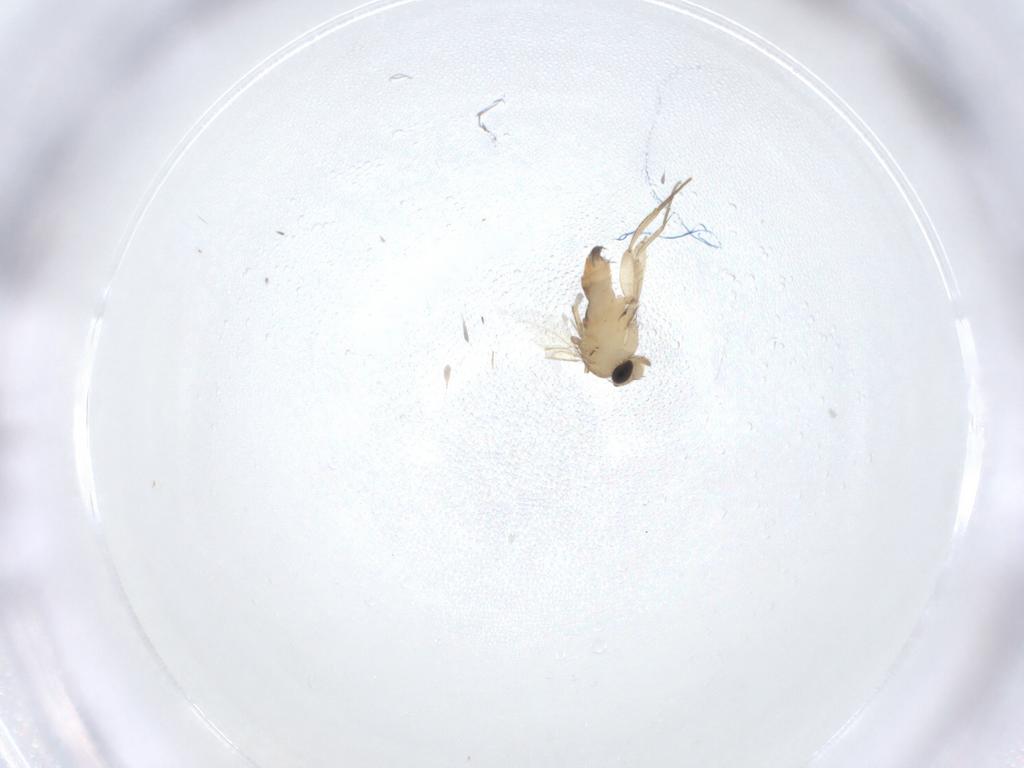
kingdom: Animalia
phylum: Arthropoda
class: Insecta
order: Diptera
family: Phoridae
